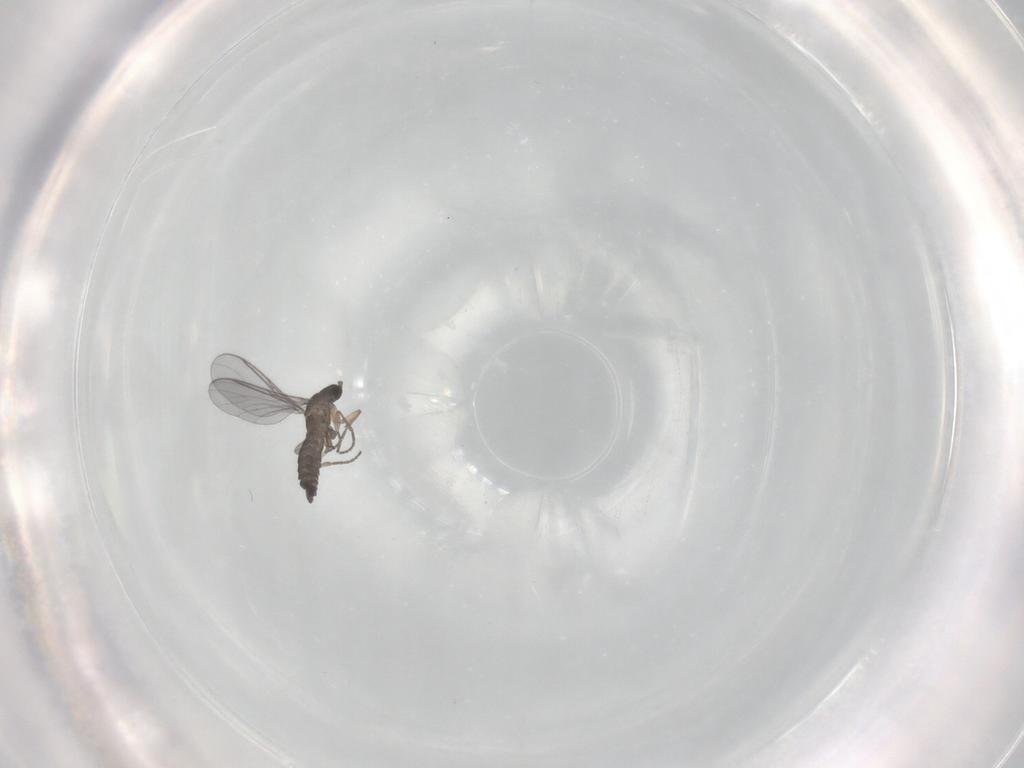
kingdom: Animalia
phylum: Arthropoda
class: Insecta
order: Diptera
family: Sciaridae
